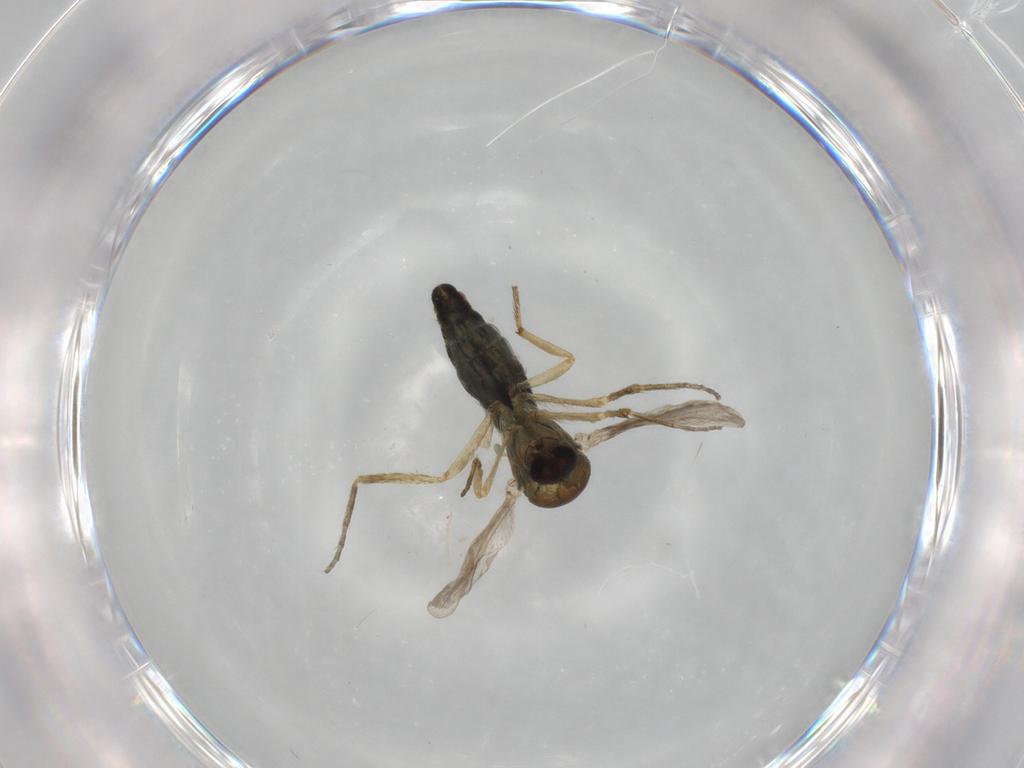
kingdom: Animalia
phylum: Arthropoda
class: Insecta
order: Diptera
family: Ceratopogonidae
